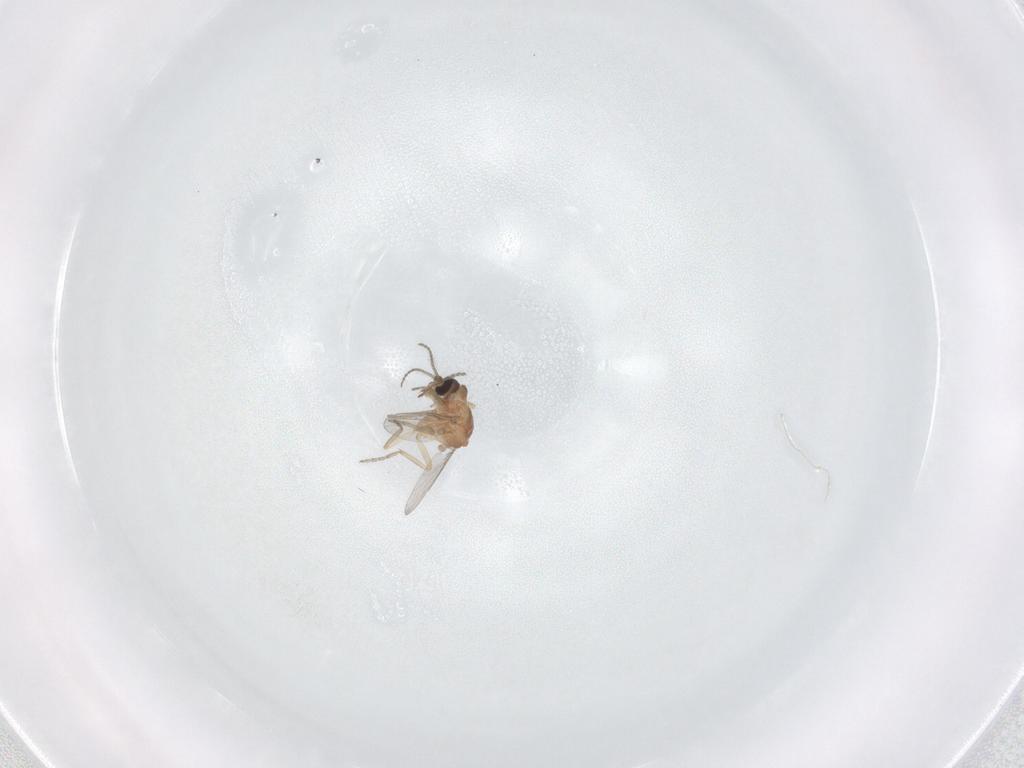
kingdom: Animalia
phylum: Arthropoda
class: Insecta
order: Diptera
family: Ceratopogonidae
